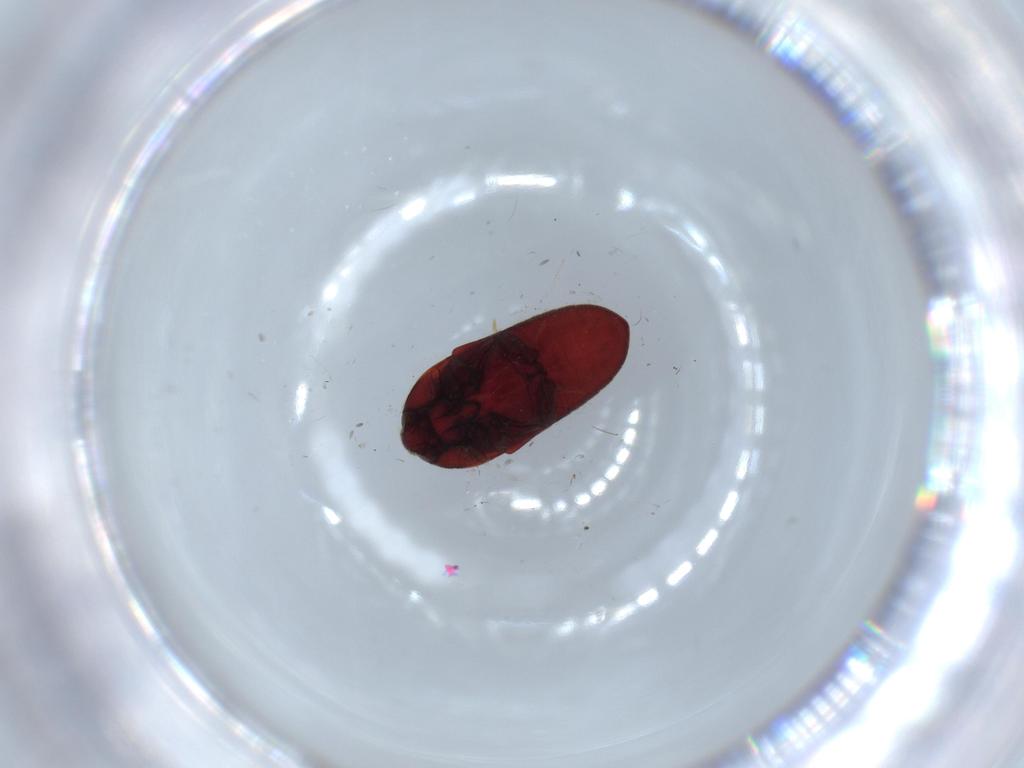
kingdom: Animalia
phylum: Arthropoda
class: Insecta
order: Coleoptera
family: Throscidae
